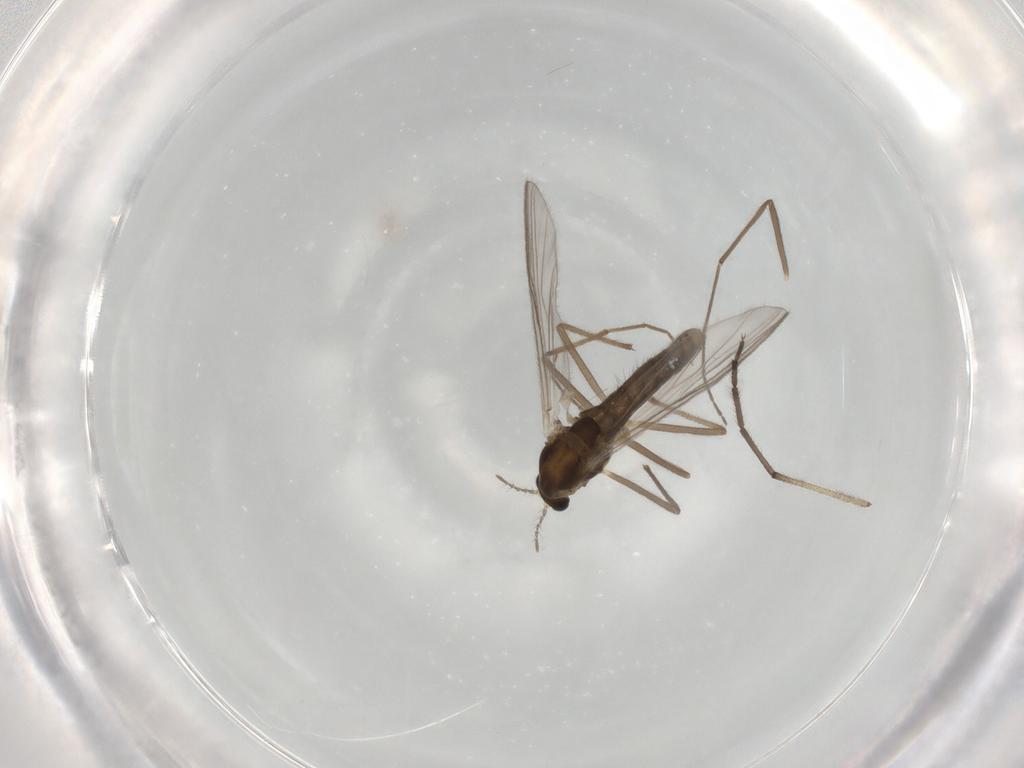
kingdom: Animalia
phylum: Arthropoda
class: Insecta
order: Diptera
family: Chironomidae
